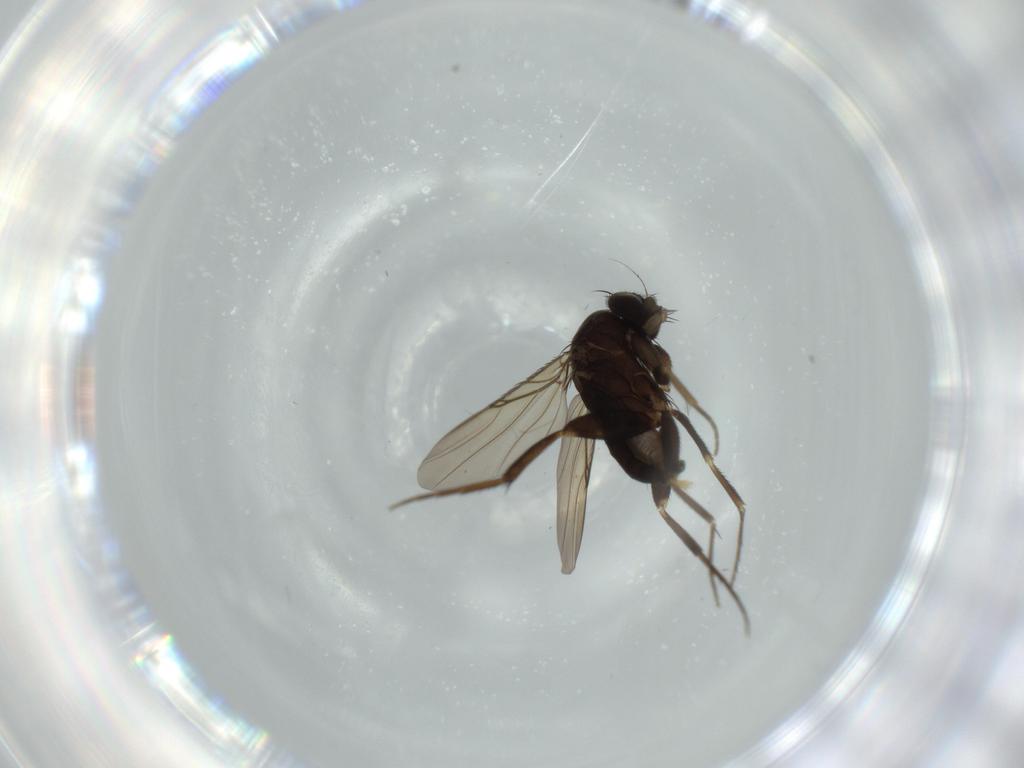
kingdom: Animalia
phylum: Arthropoda
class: Insecta
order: Diptera
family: Phoridae
